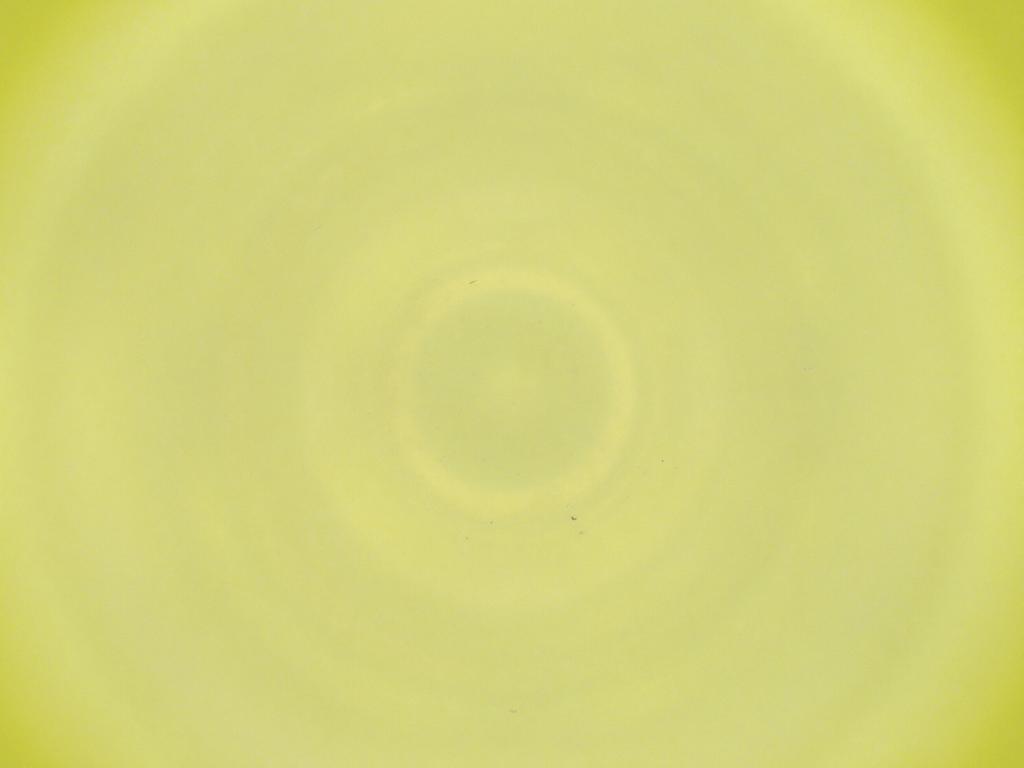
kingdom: Animalia
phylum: Arthropoda
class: Insecta
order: Diptera
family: Cecidomyiidae
